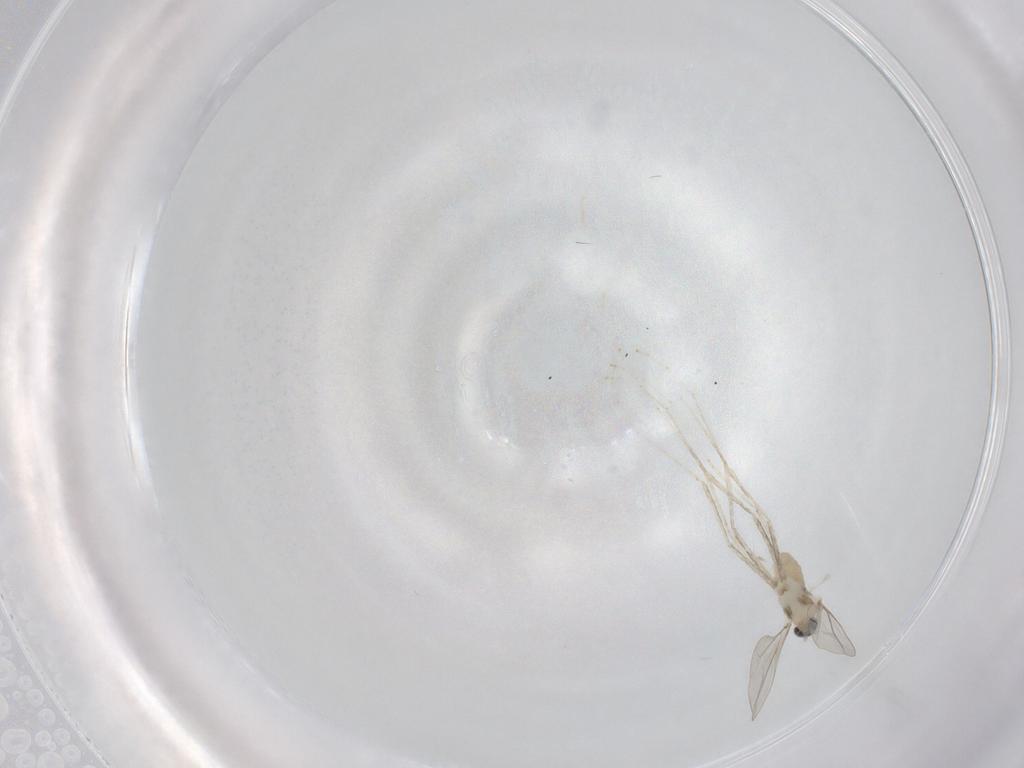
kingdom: Animalia
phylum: Arthropoda
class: Insecta
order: Diptera
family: Cecidomyiidae
